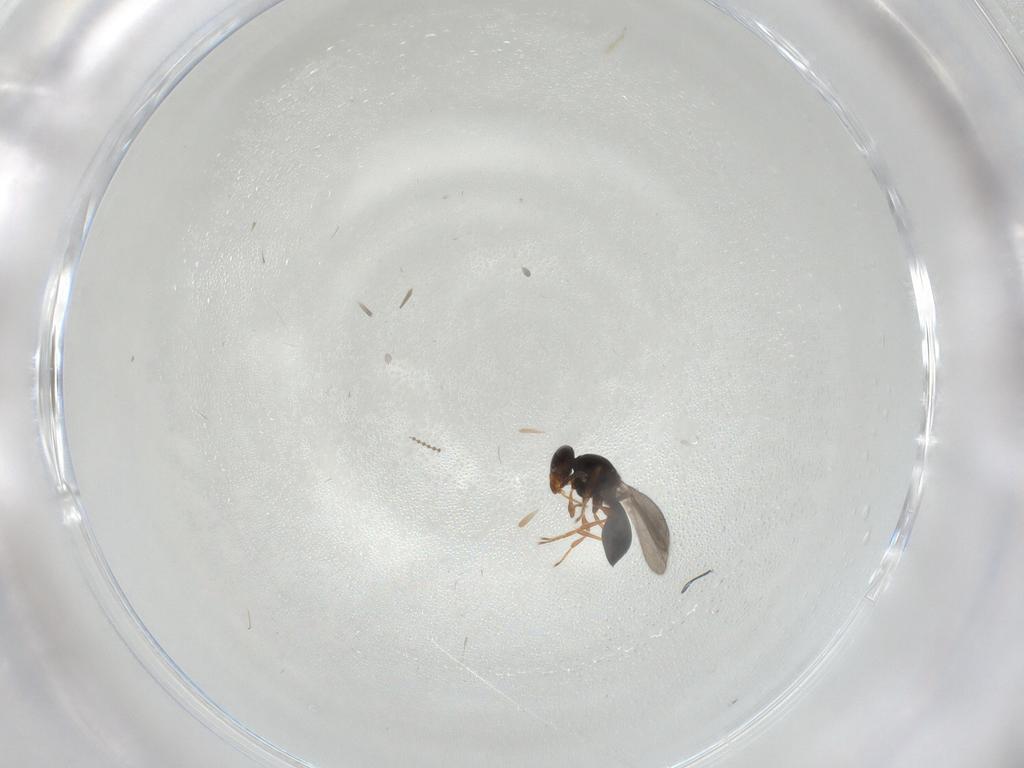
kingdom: Animalia
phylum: Arthropoda
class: Insecta
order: Hymenoptera
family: Platygastridae
